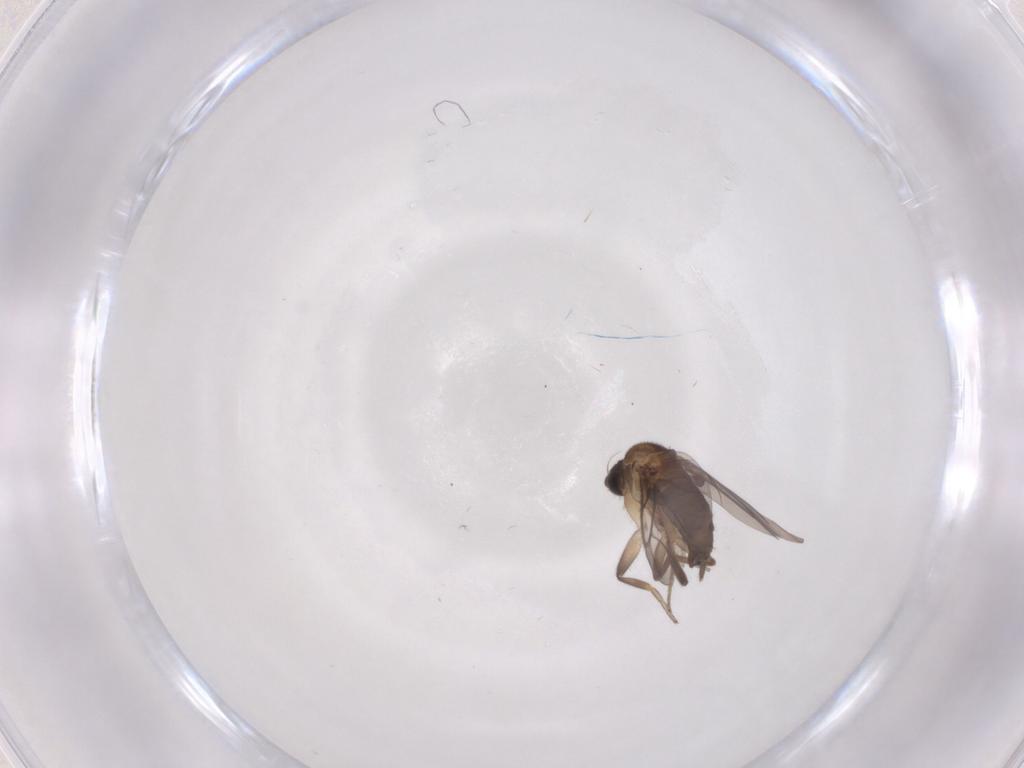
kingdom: Animalia
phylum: Arthropoda
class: Insecta
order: Diptera
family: Phoridae
